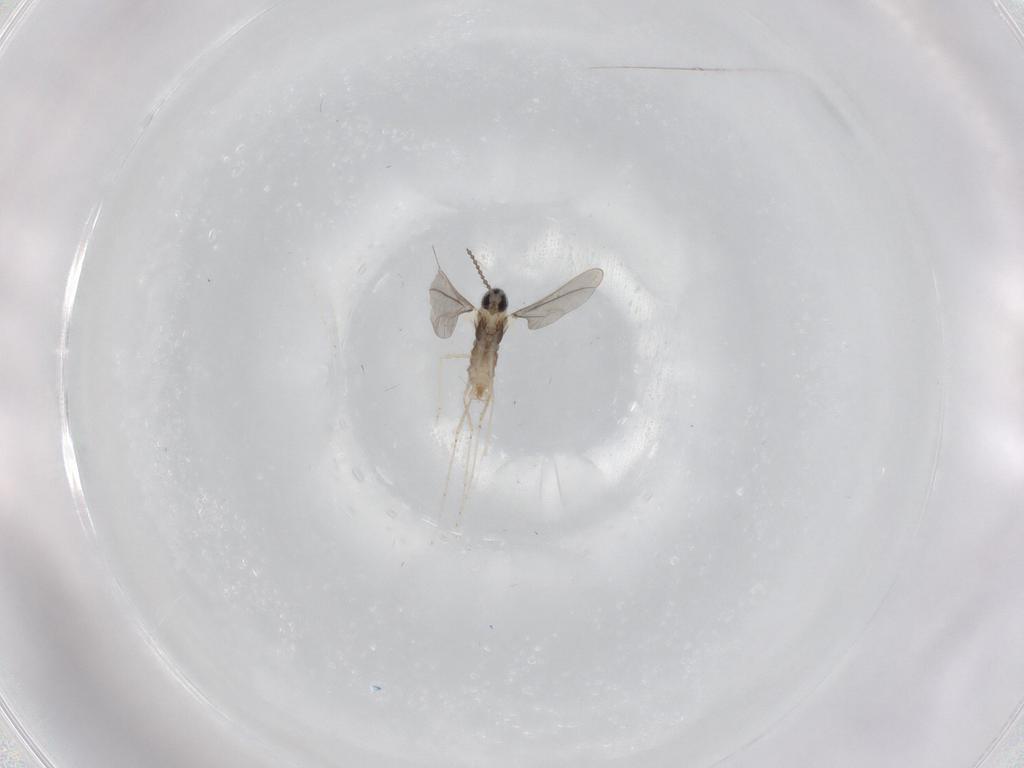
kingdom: Animalia
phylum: Arthropoda
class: Insecta
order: Diptera
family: Cecidomyiidae
